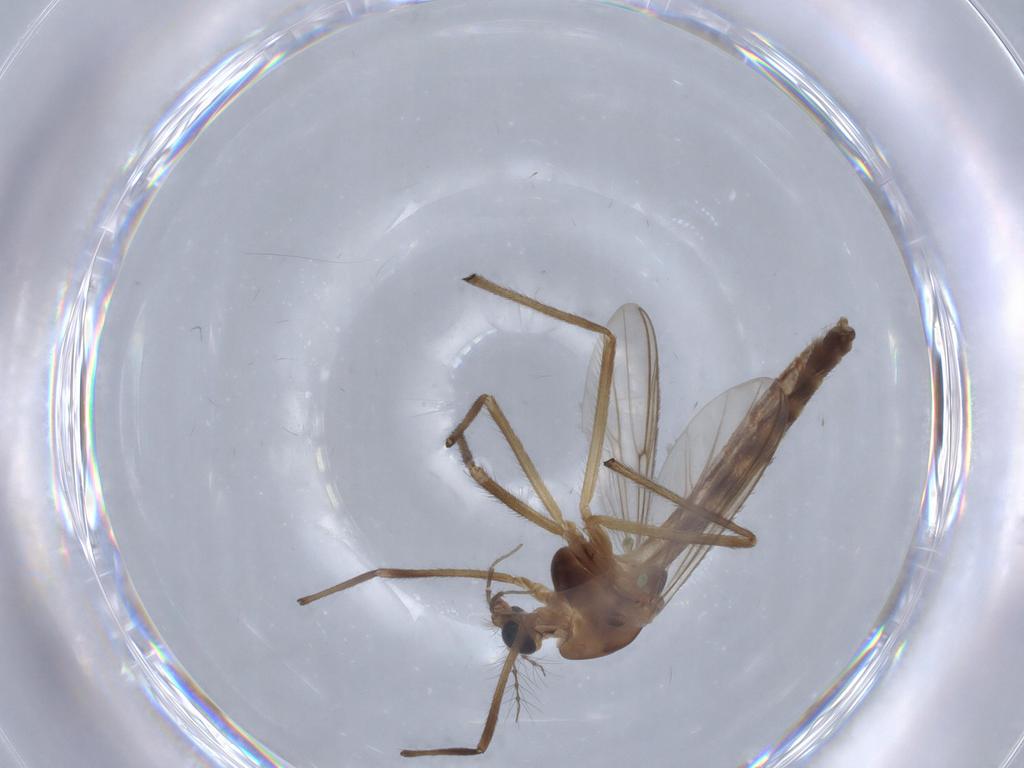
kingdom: Animalia
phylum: Arthropoda
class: Insecta
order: Diptera
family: Chironomidae
